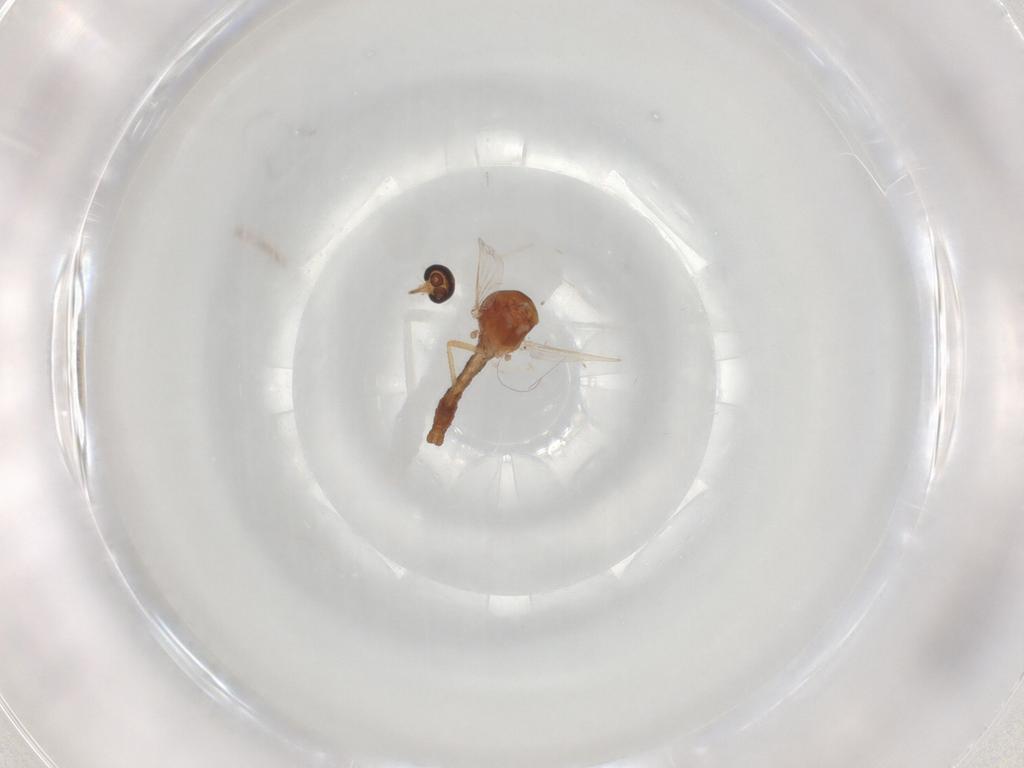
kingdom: Animalia
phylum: Arthropoda
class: Insecta
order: Diptera
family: Ceratopogonidae
